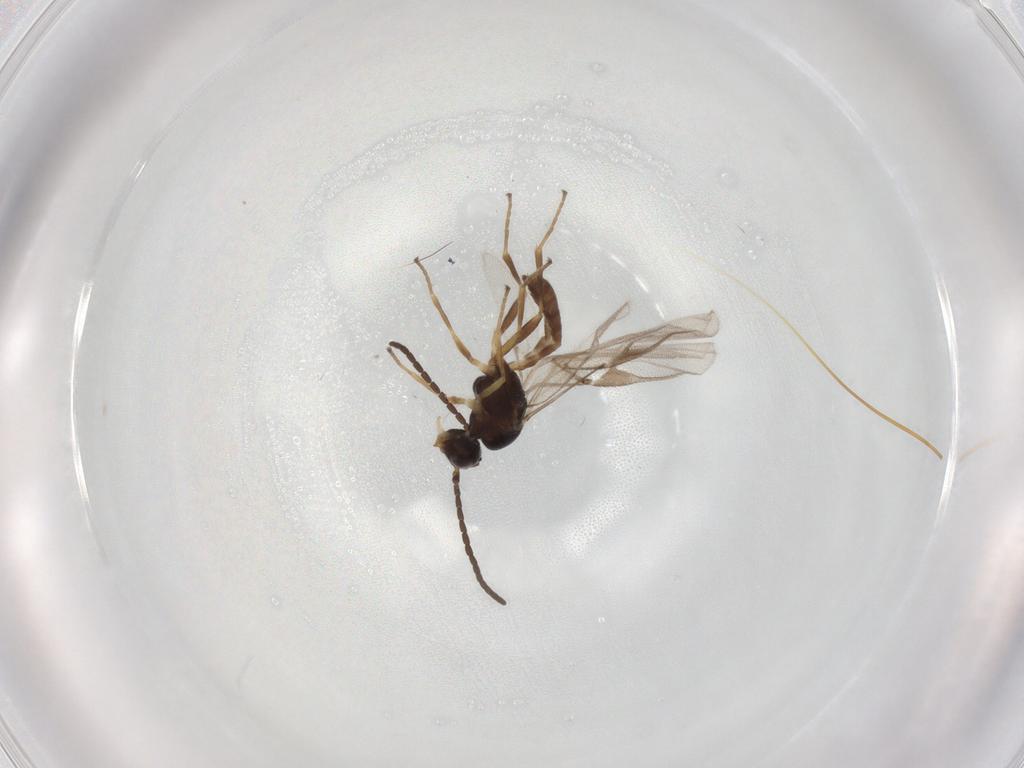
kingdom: Animalia
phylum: Arthropoda
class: Insecta
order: Hymenoptera
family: Braconidae
